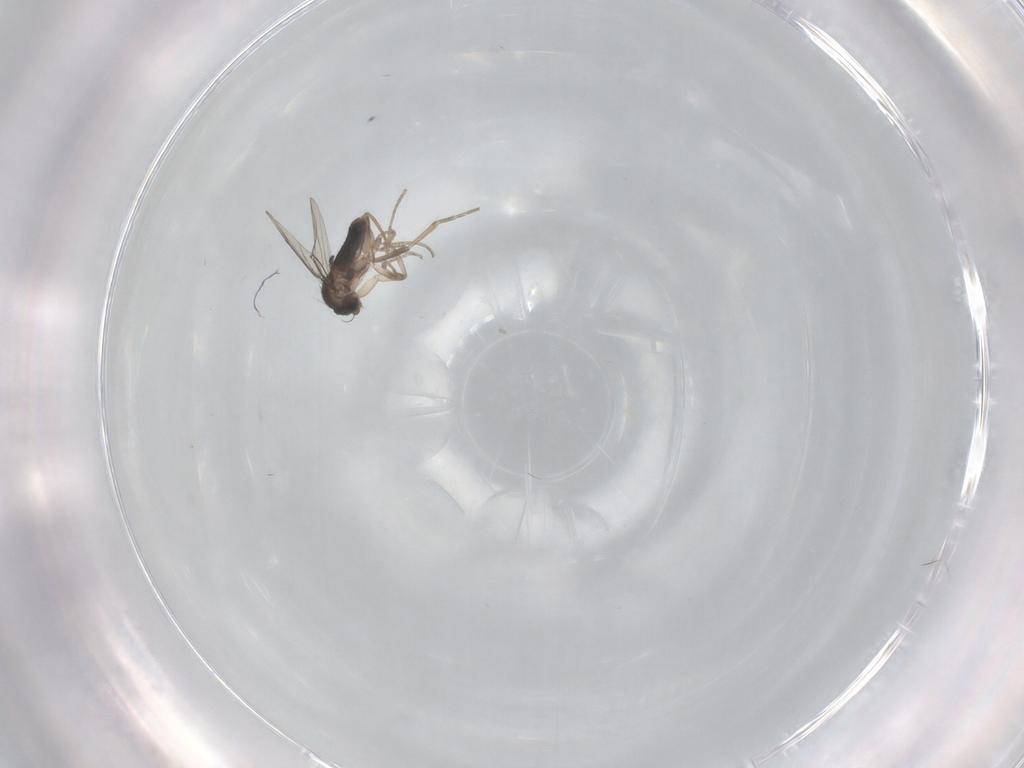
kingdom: Animalia
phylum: Arthropoda
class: Insecta
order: Diptera
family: Phoridae
